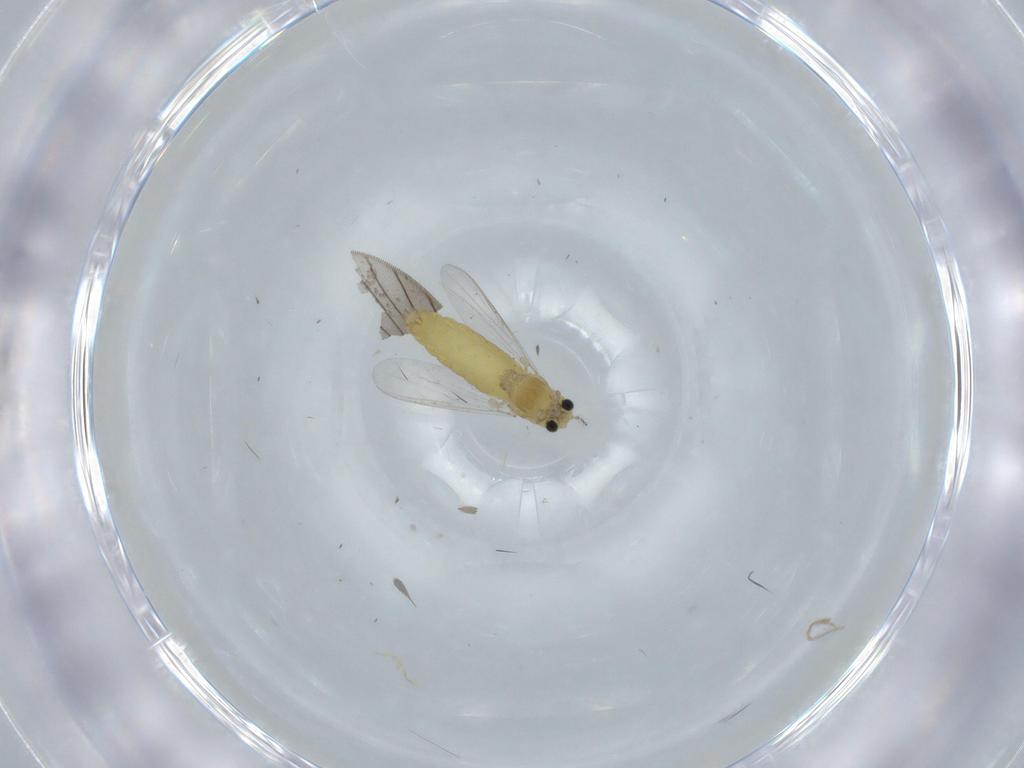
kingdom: Animalia
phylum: Arthropoda
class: Insecta
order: Diptera
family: Chironomidae
